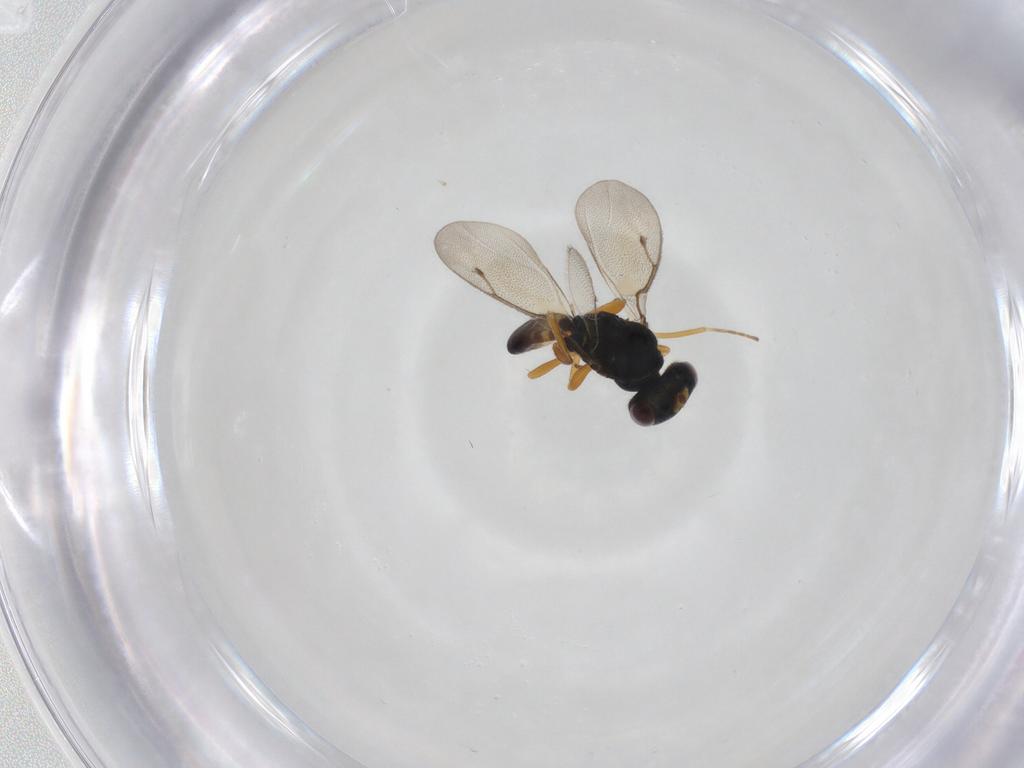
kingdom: Animalia
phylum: Arthropoda
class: Insecta
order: Hymenoptera
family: Pteromalidae
